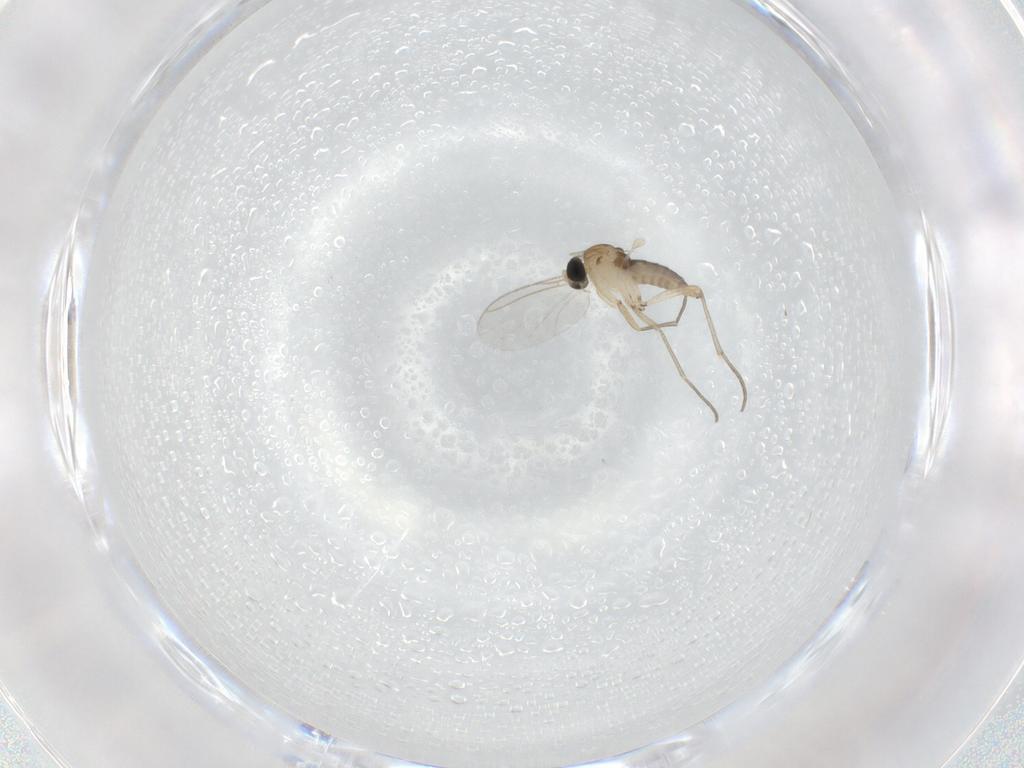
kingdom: Animalia
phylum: Arthropoda
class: Insecta
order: Diptera
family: Sciaridae
